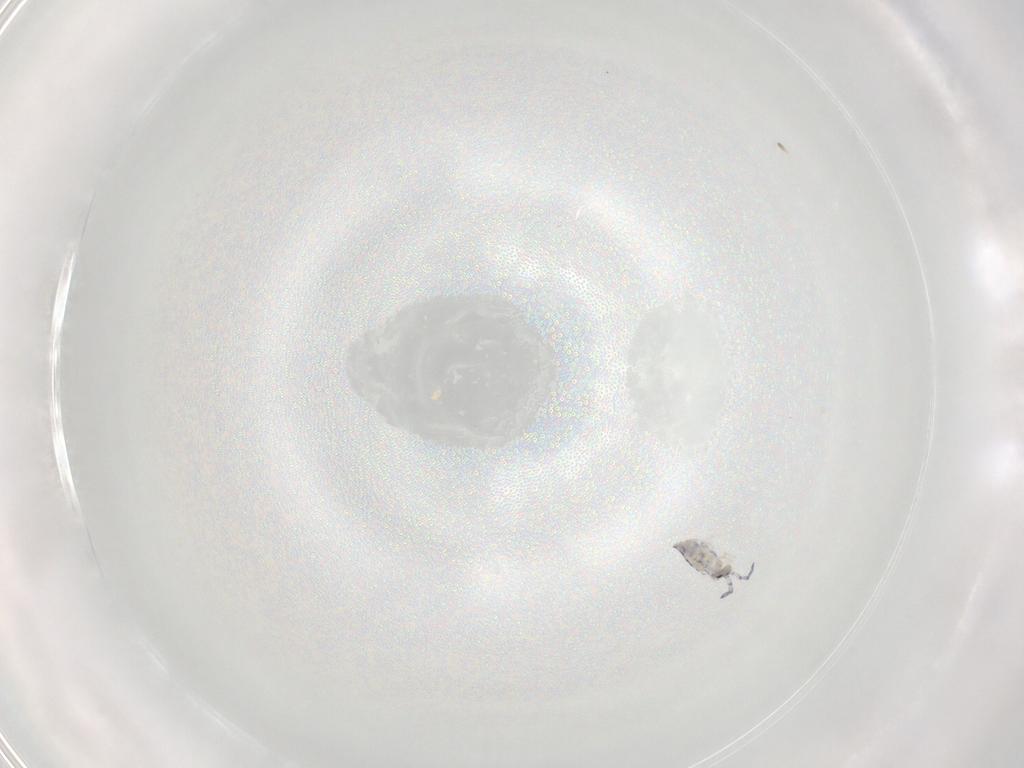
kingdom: Animalia
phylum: Arthropoda
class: Collembola
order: Entomobryomorpha
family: Entomobryidae
